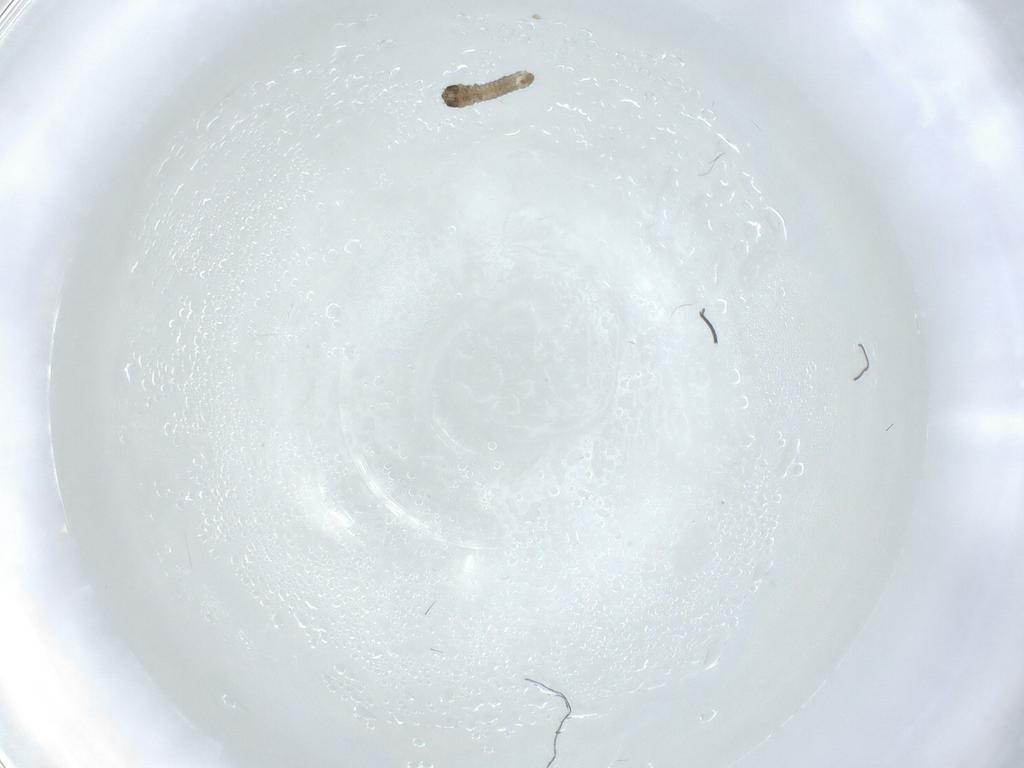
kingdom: Animalia
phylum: Arthropoda
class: Insecta
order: Lepidoptera
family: Tortricidae
